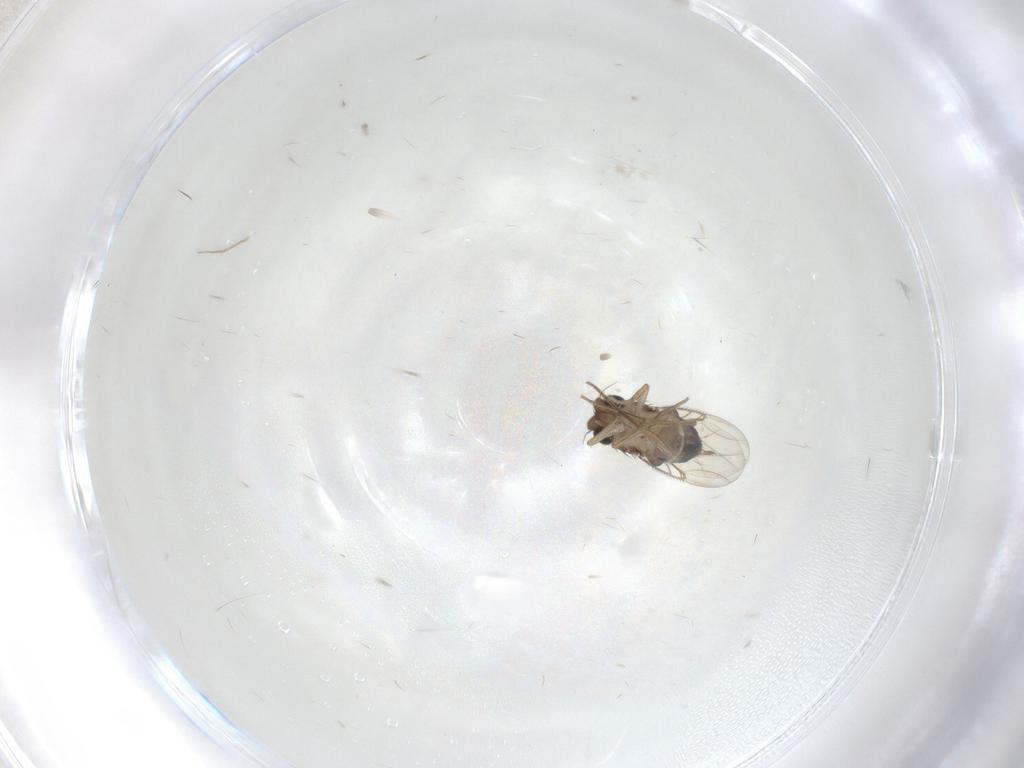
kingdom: Animalia
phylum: Arthropoda
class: Insecta
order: Diptera
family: Phoridae
